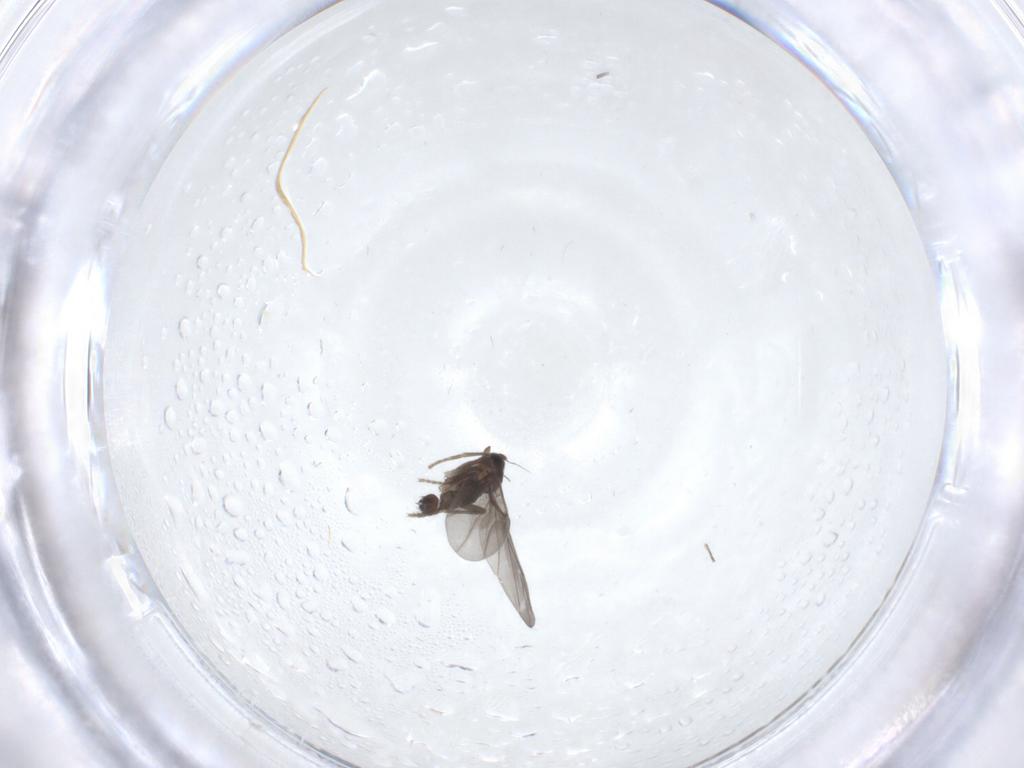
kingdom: Animalia
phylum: Arthropoda
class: Insecta
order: Diptera
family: Phoridae
